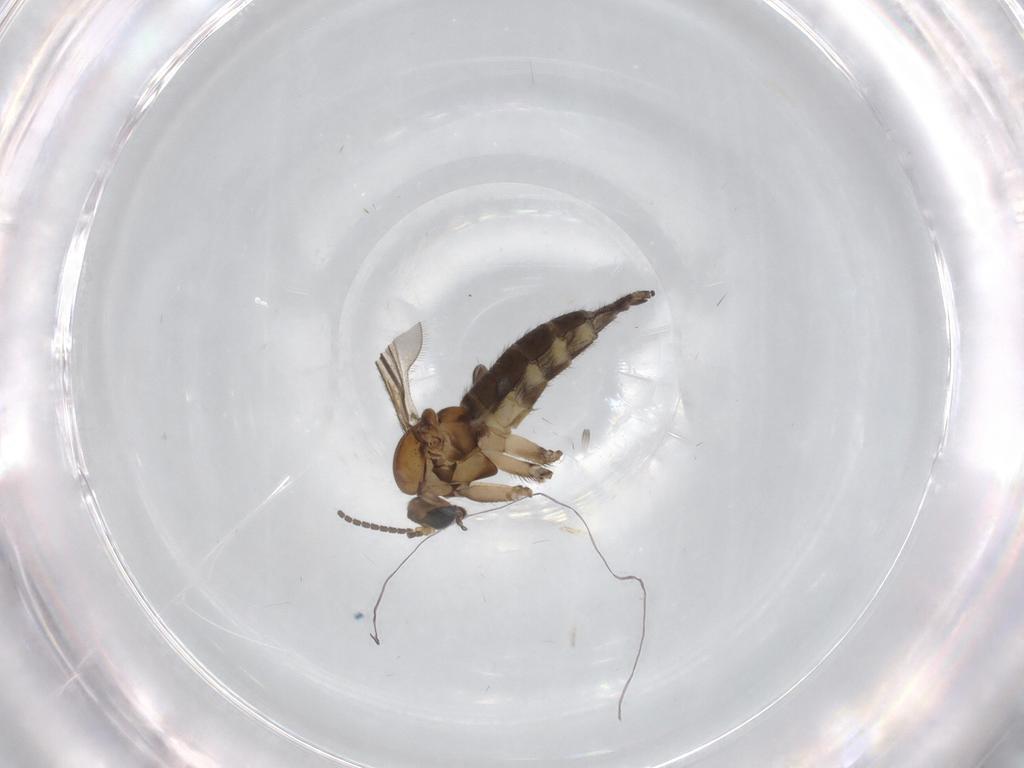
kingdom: Animalia
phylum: Arthropoda
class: Insecta
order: Diptera
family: Sciaridae
